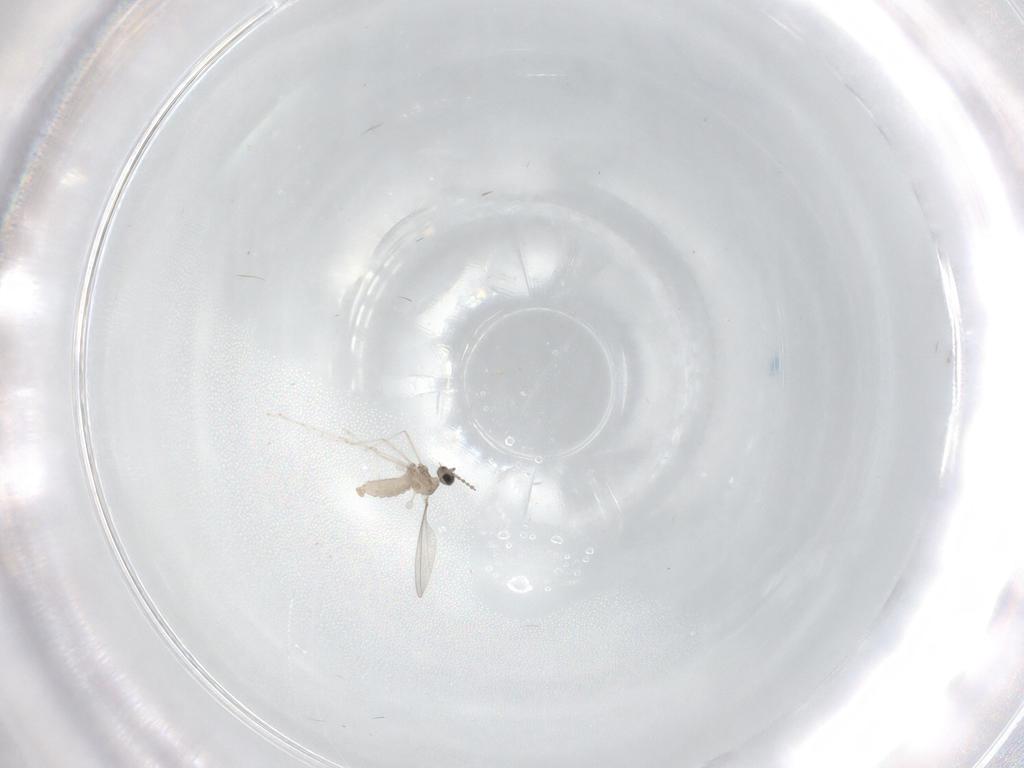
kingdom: Animalia
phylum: Arthropoda
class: Insecta
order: Diptera
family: Cecidomyiidae
